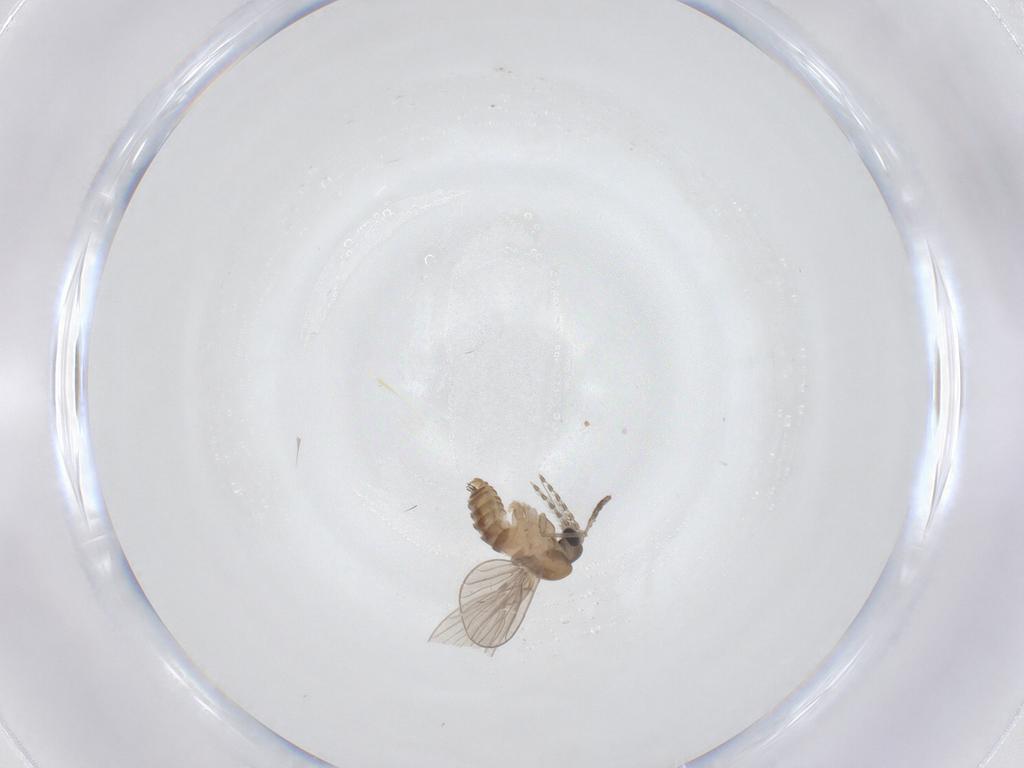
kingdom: Animalia
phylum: Arthropoda
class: Insecta
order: Diptera
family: Psychodidae
